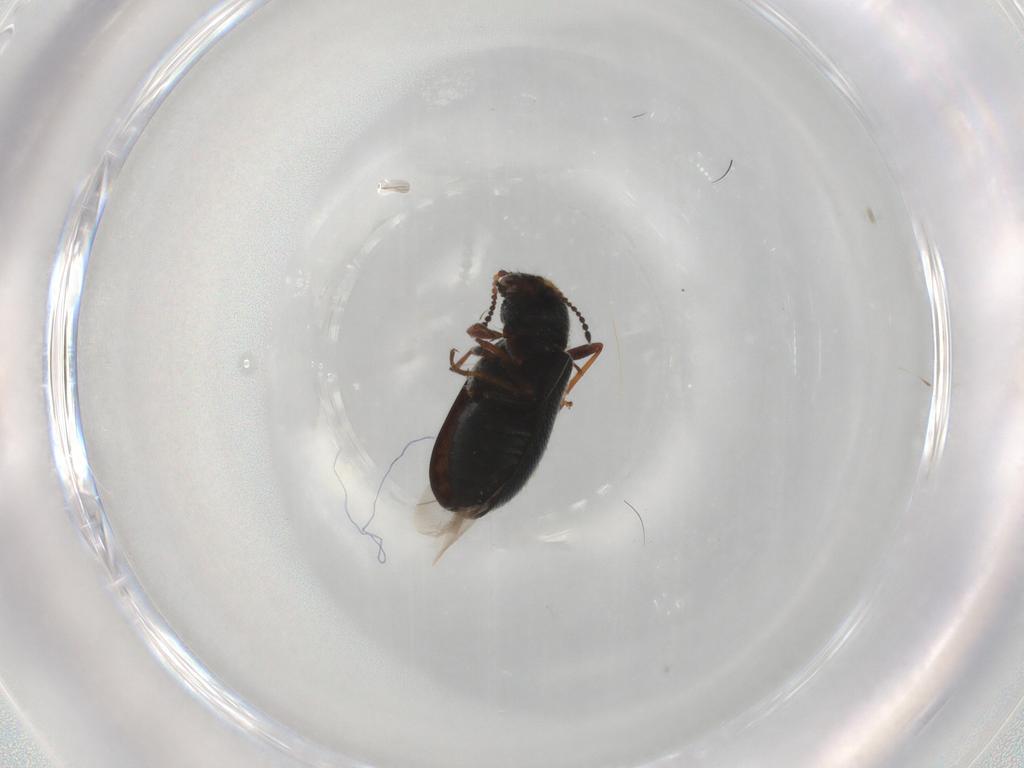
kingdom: Animalia
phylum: Arthropoda
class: Insecta
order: Coleoptera
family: Melyridae
